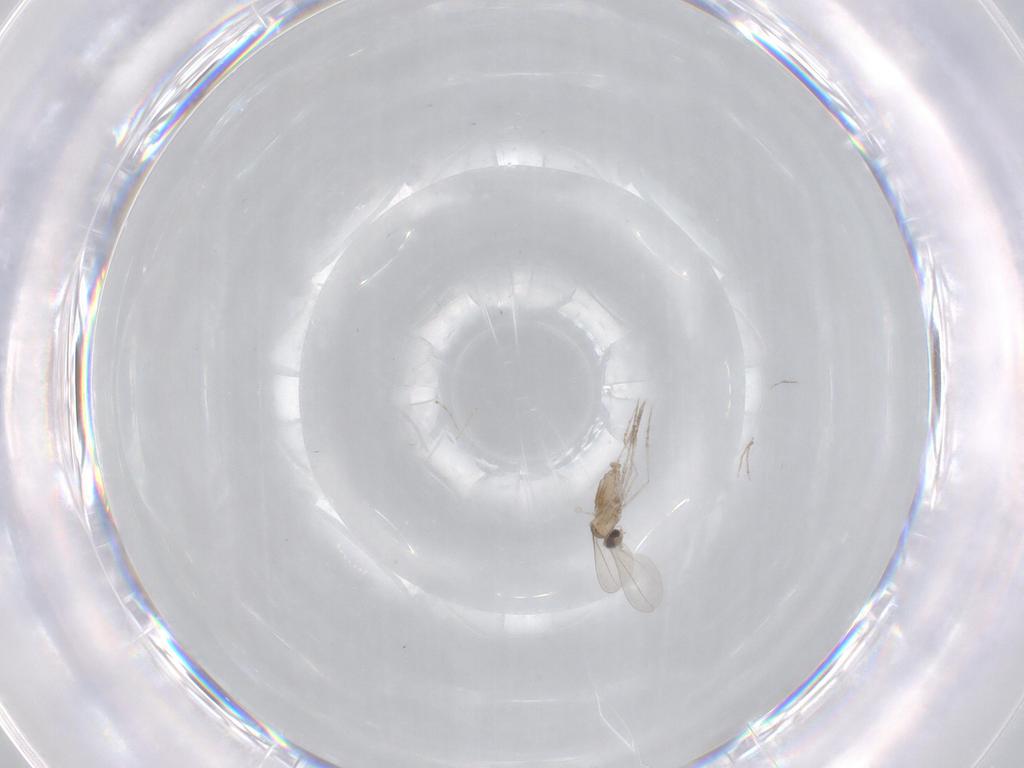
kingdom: Animalia
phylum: Arthropoda
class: Insecta
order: Diptera
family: Cecidomyiidae
